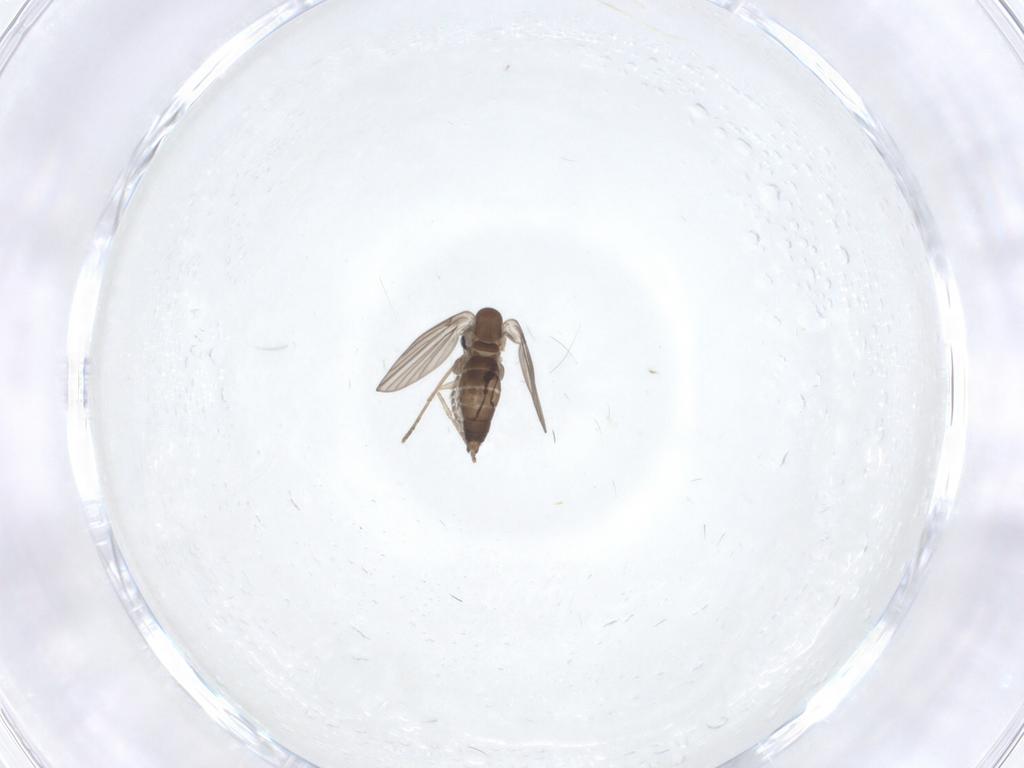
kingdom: Animalia
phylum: Arthropoda
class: Insecta
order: Diptera
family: Psychodidae
